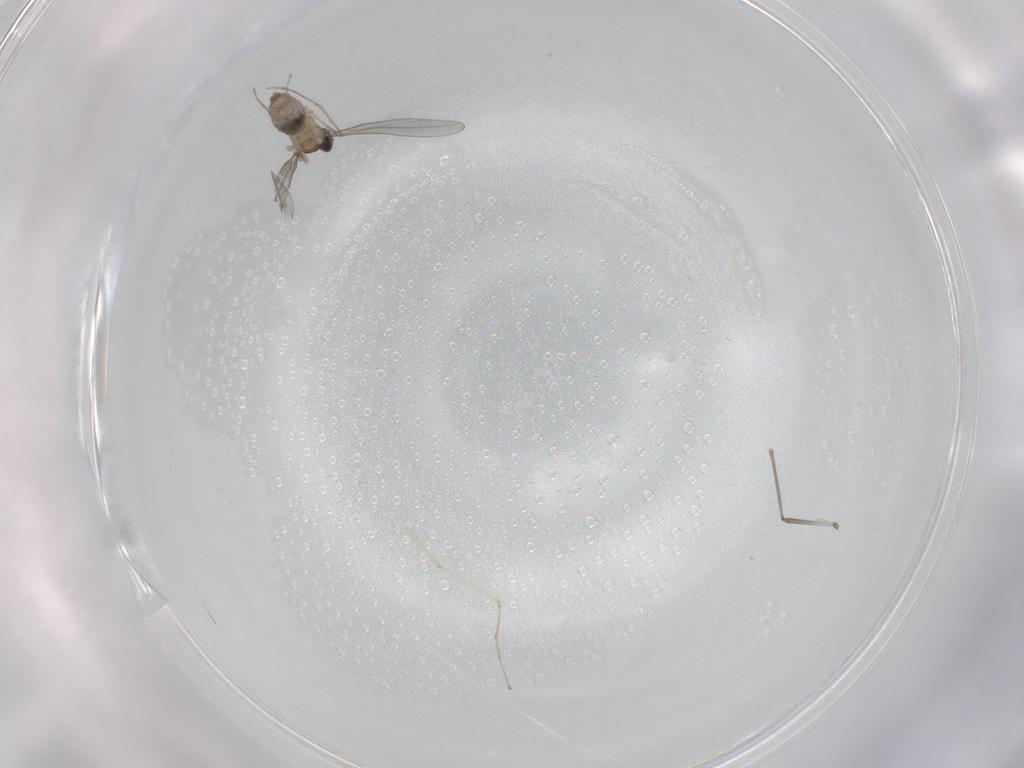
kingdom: Animalia
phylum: Arthropoda
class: Insecta
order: Diptera
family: Cecidomyiidae
